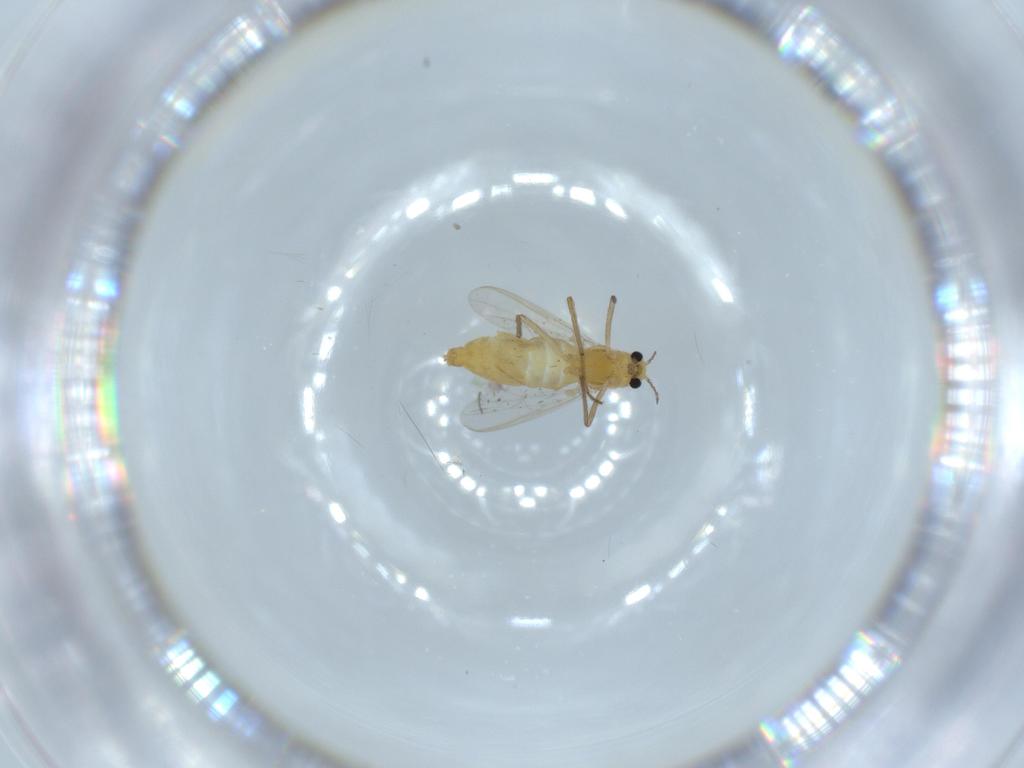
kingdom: Animalia
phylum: Arthropoda
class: Insecta
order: Diptera
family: Chironomidae
